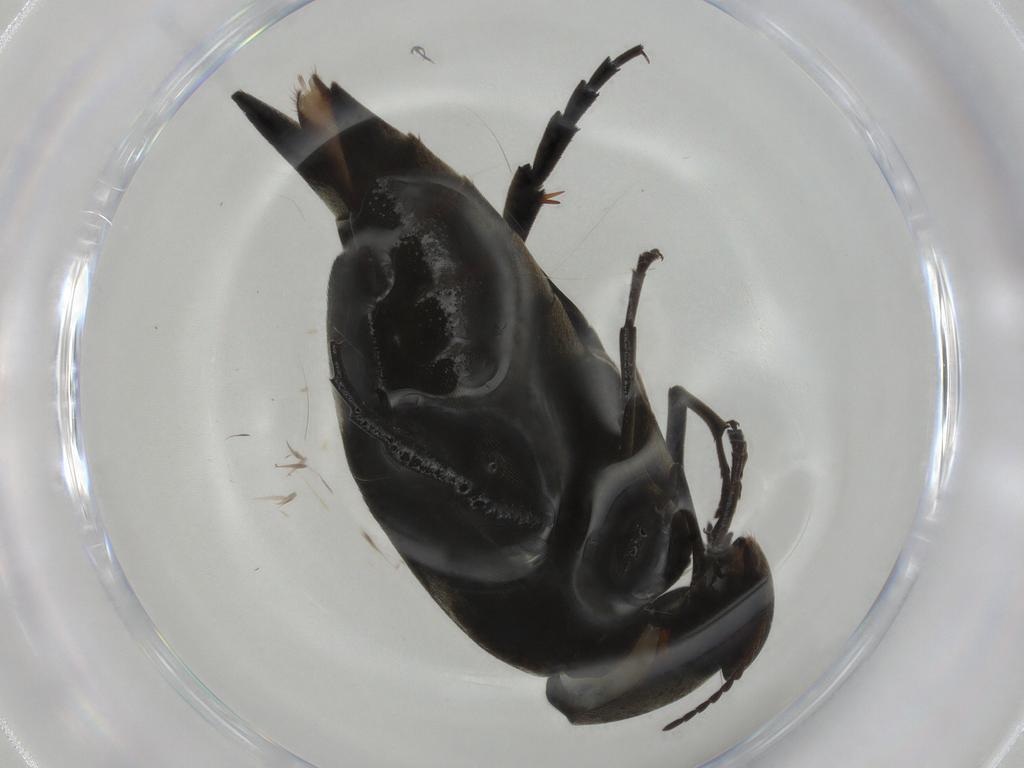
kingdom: Animalia
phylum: Arthropoda
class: Insecta
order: Coleoptera
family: Mordellidae
